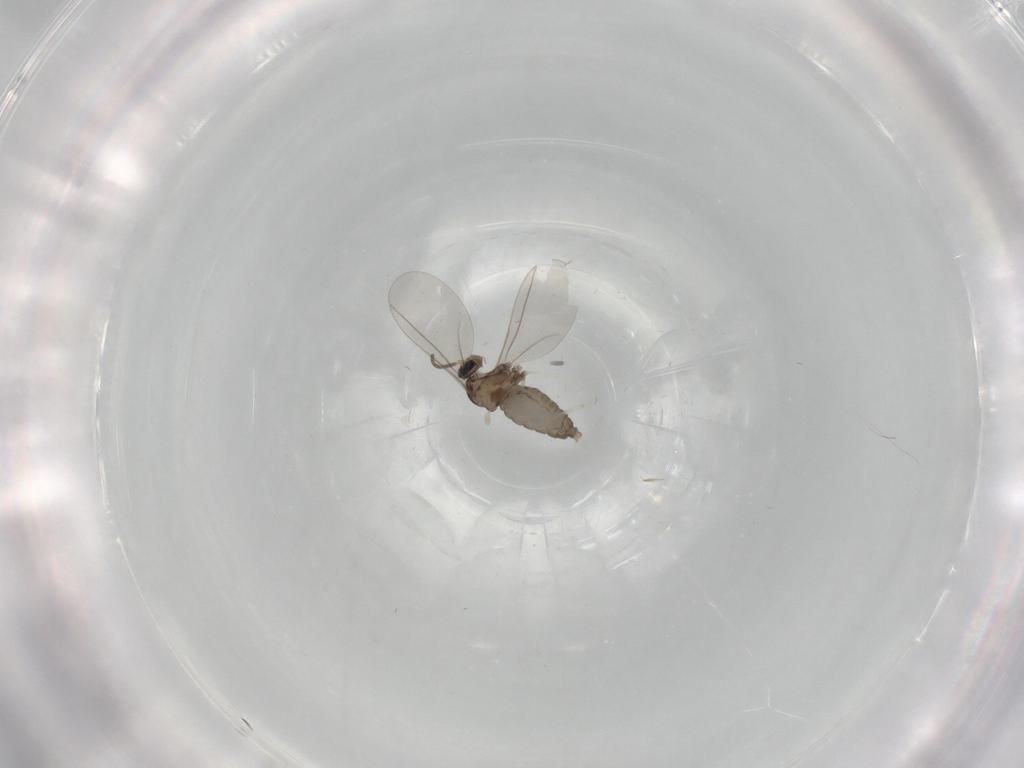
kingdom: Animalia
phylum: Arthropoda
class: Insecta
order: Diptera
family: Cecidomyiidae
